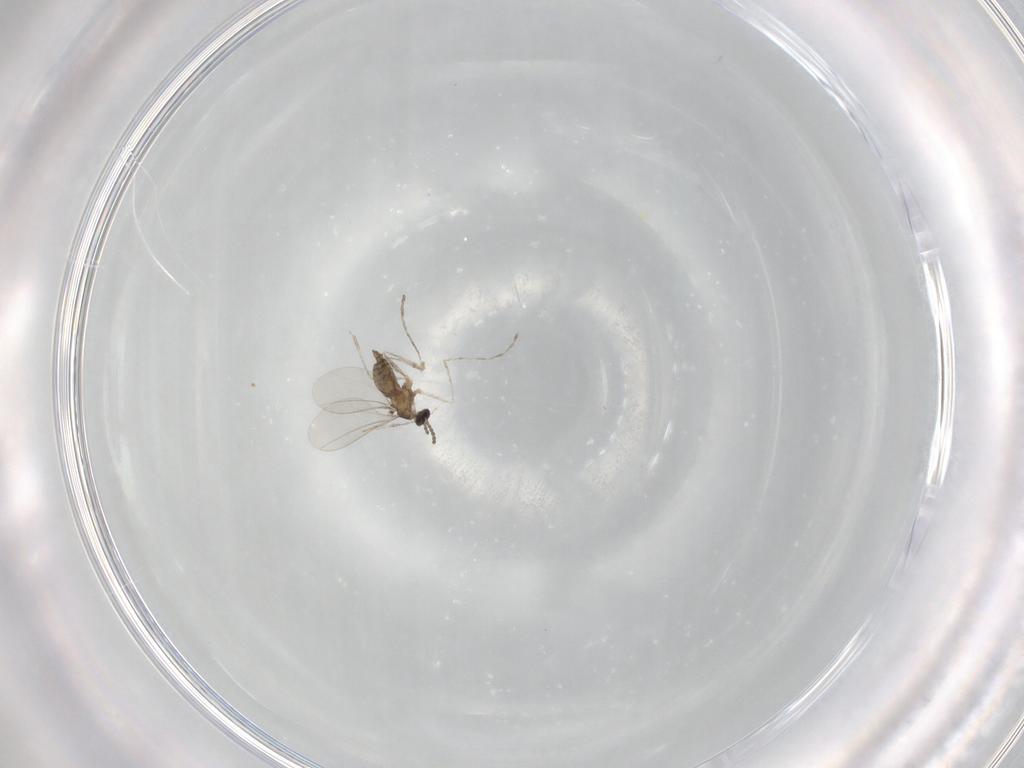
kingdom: Animalia
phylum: Arthropoda
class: Insecta
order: Diptera
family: Cecidomyiidae
